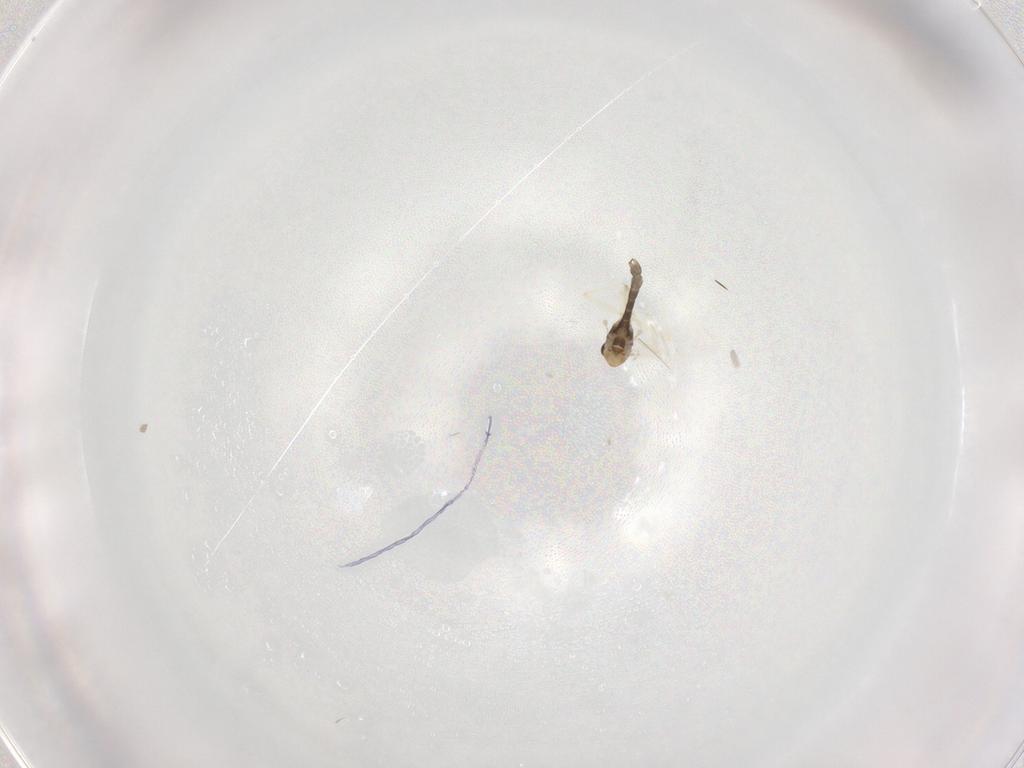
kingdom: Animalia
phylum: Arthropoda
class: Insecta
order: Diptera
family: Chironomidae
